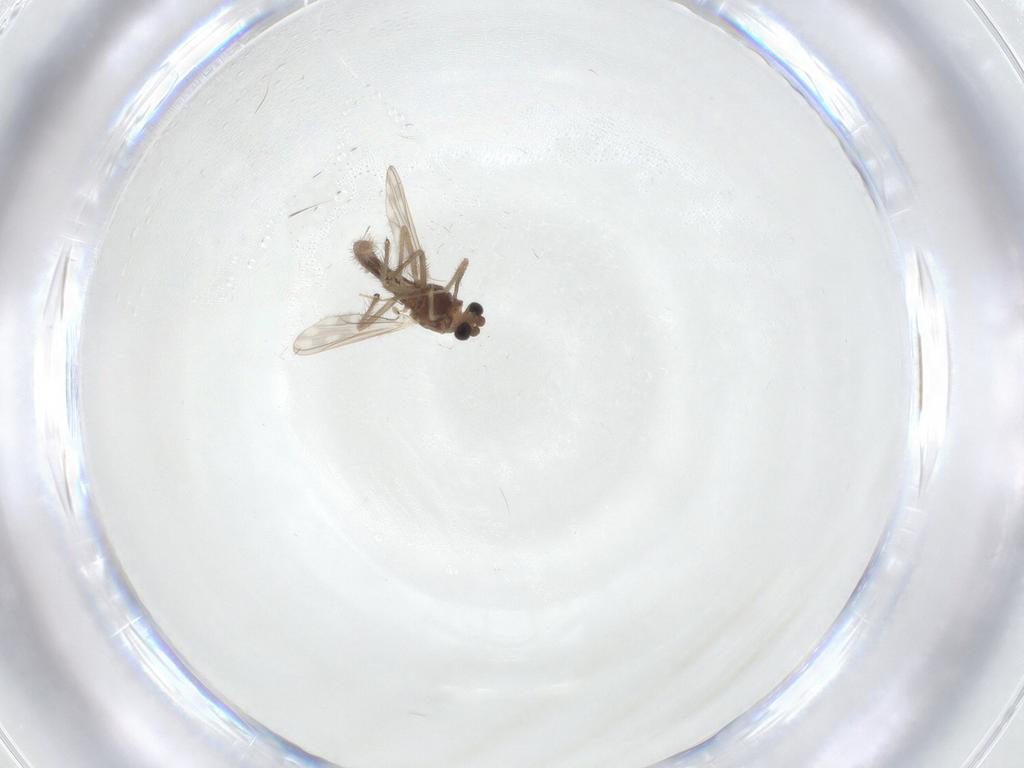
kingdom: Animalia
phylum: Arthropoda
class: Insecta
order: Diptera
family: Chironomidae
